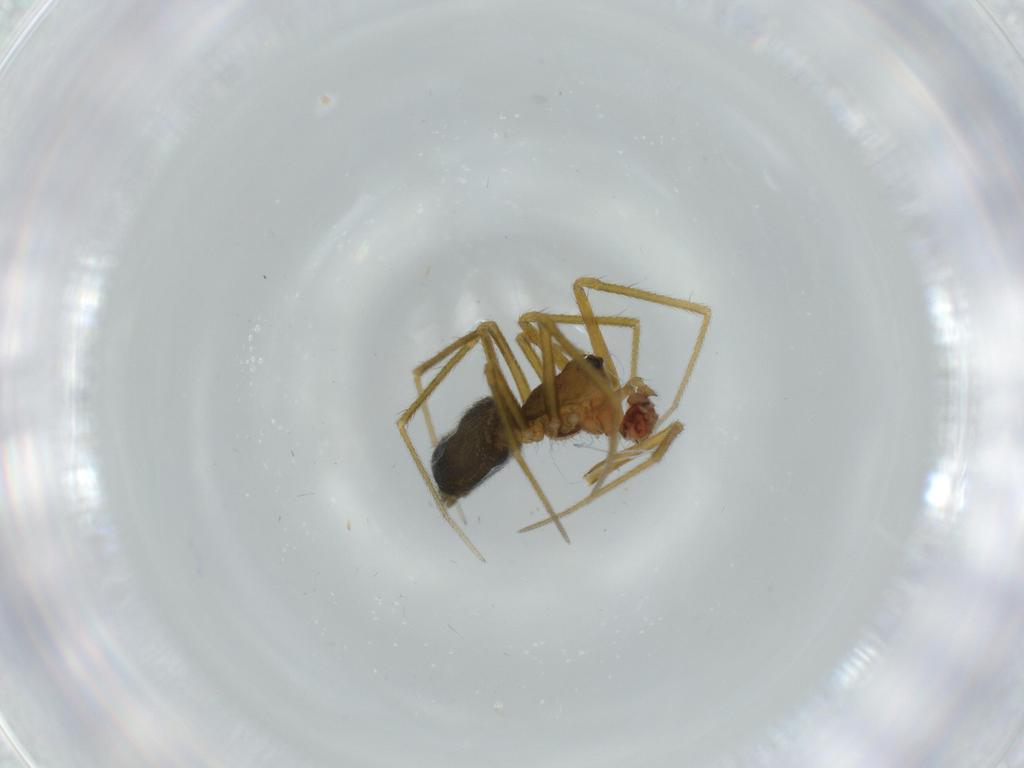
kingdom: Animalia
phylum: Arthropoda
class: Arachnida
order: Araneae
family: Linyphiidae
